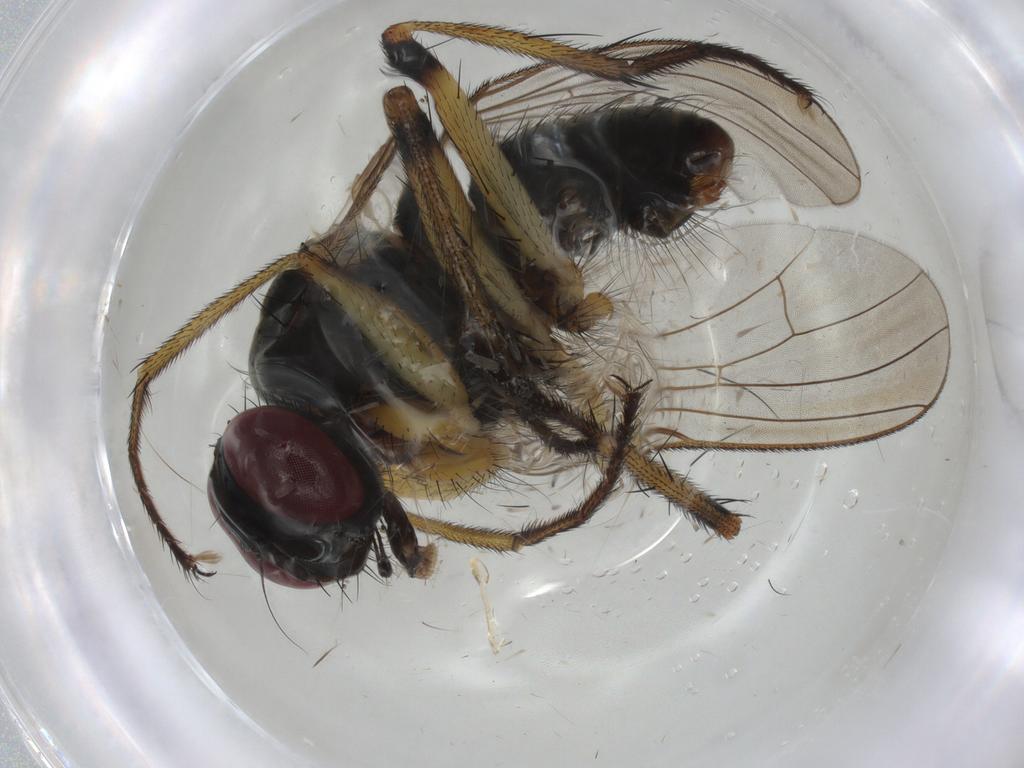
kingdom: Animalia
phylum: Arthropoda
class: Insecta
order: Diptera
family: Muscidae
